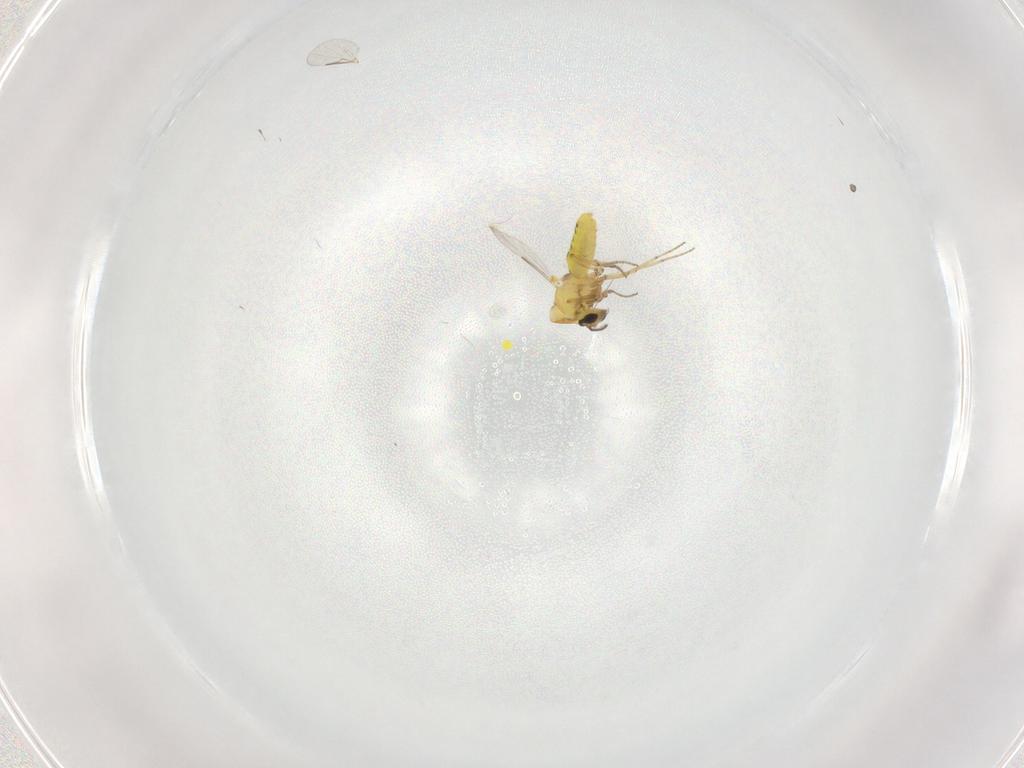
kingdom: Animalia
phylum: Arthropoda
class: Insecta
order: Diptera
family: Ceratopogonidae
